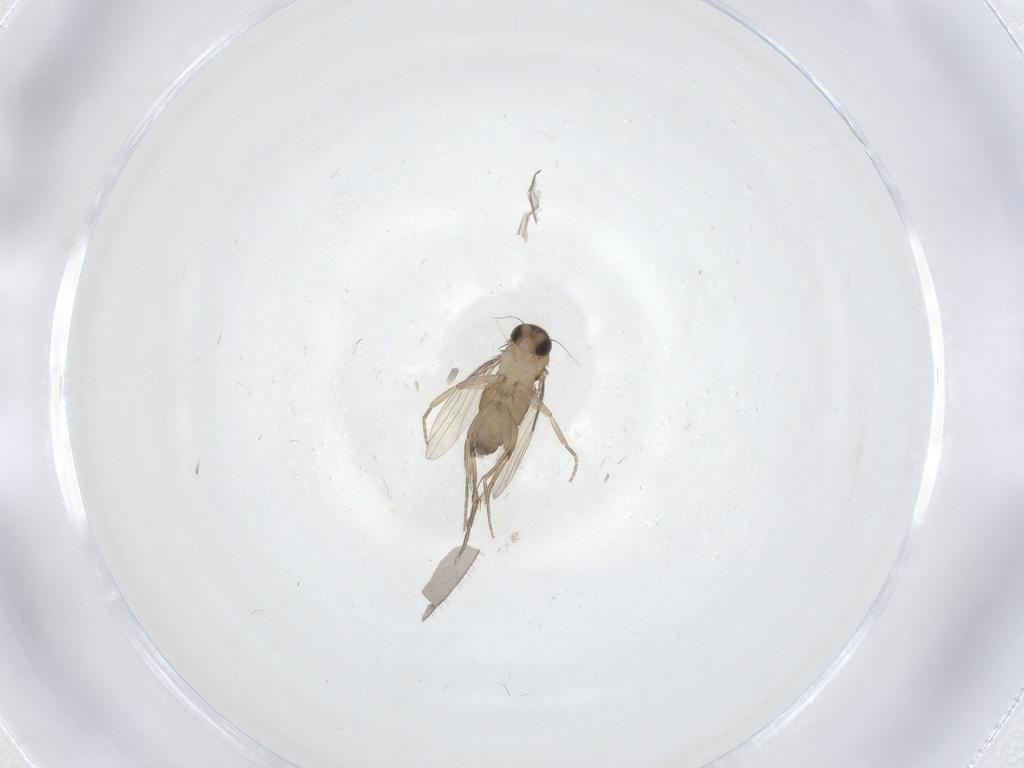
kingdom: Animalia
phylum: Arthropoda
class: Insecta
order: Diptera
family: Phoridae
